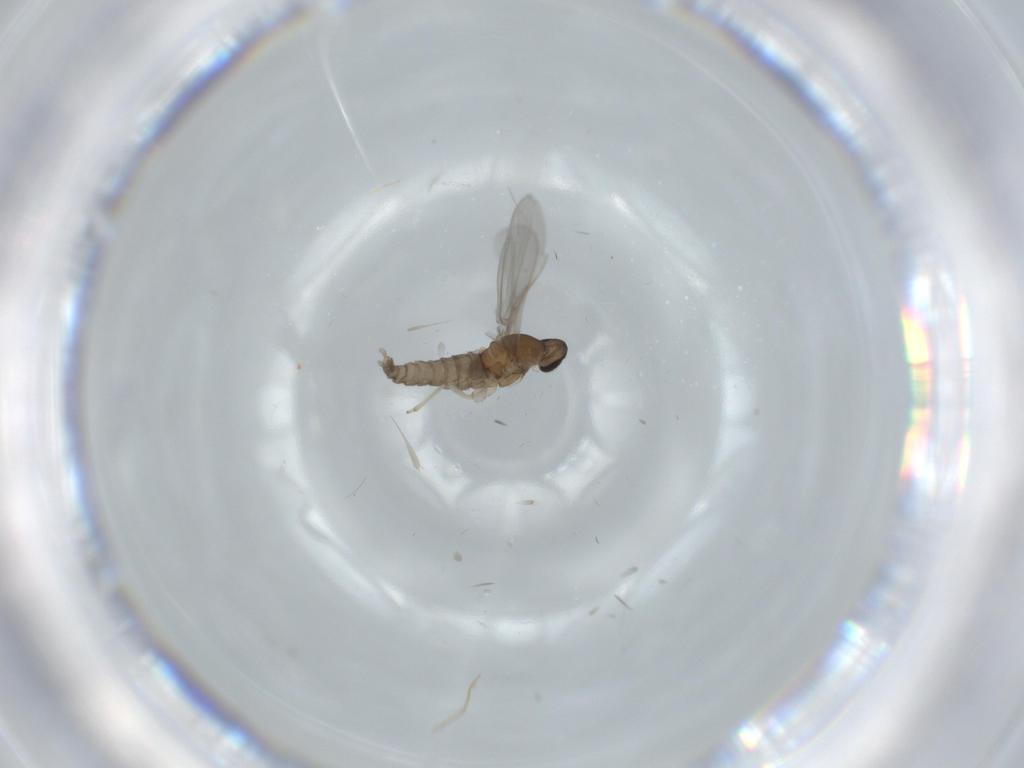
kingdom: Animalia
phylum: Arthropoda
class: Insecta
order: Diptera
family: Cecidomyiidae
